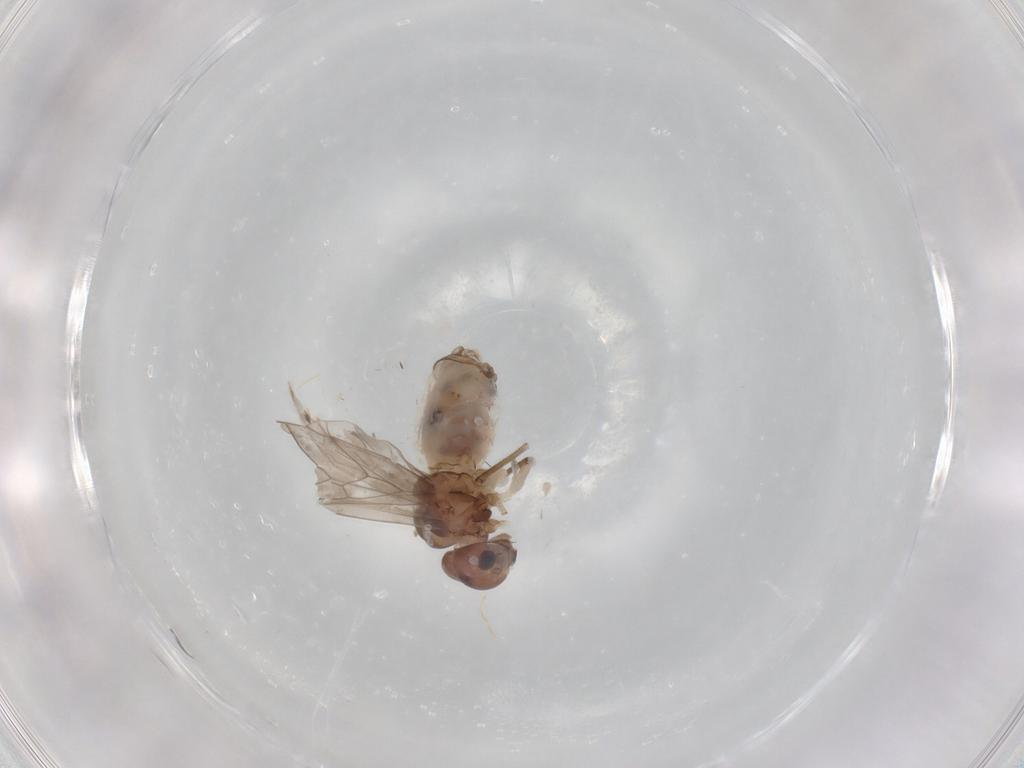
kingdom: Animalia
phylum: Arthropoda
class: Insecta
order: Psocodea
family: Peripsocidae
